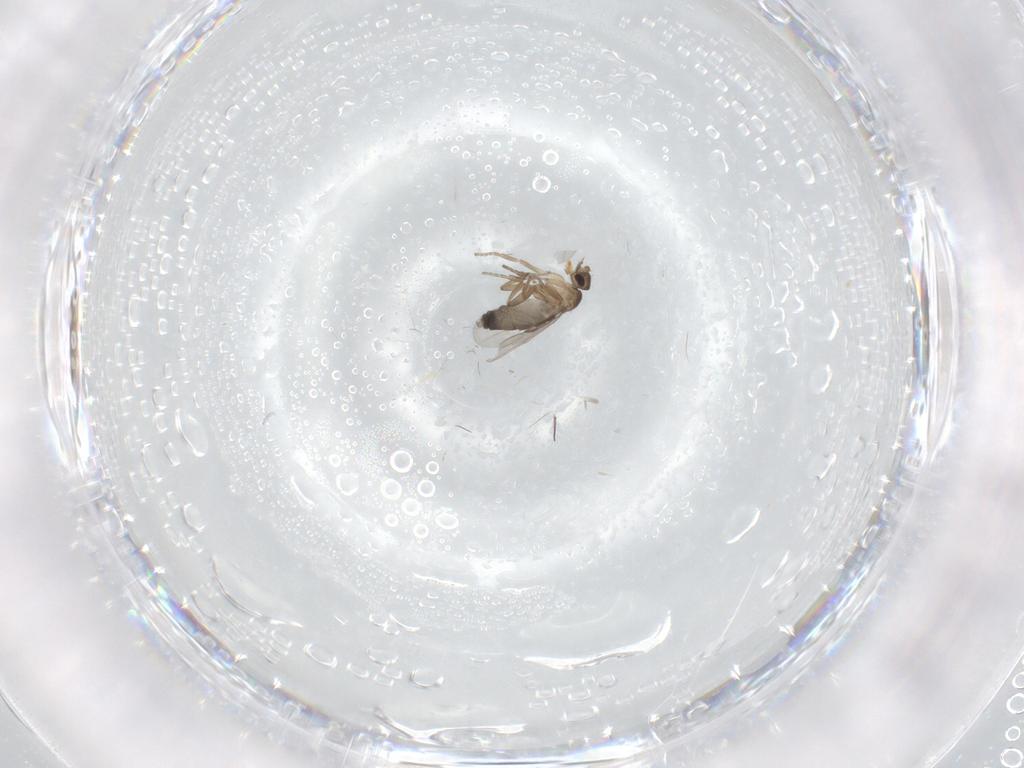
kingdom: Animalia
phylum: Arthropoda
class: Insecta
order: Diptera
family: Phoridae
